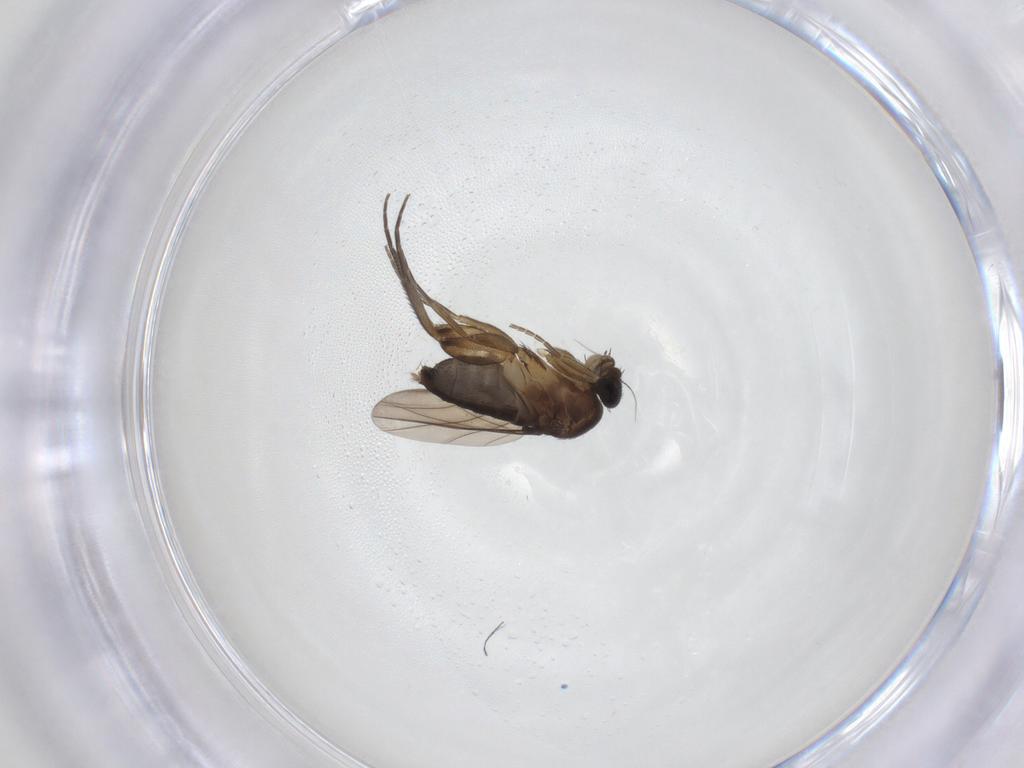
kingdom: Animalia
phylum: Arthropoda
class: Insecta
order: Diptera
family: Phoridae
